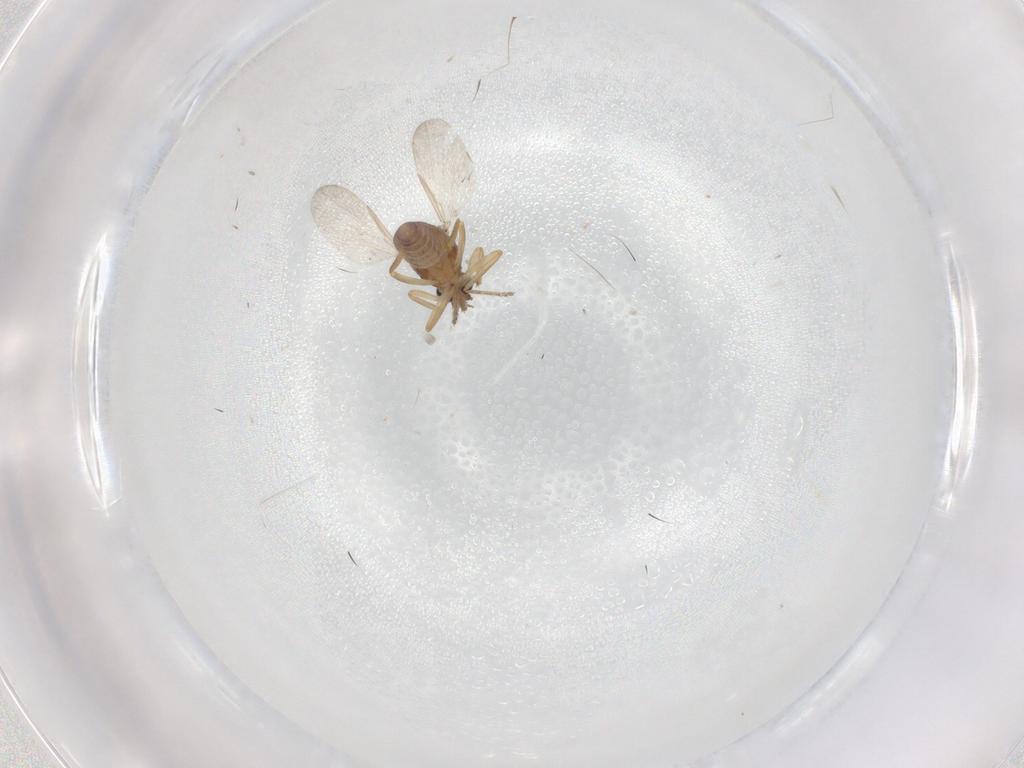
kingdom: Animalia
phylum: Arthropoda
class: Insecta
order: Diptera
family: Ceratopogonidae
